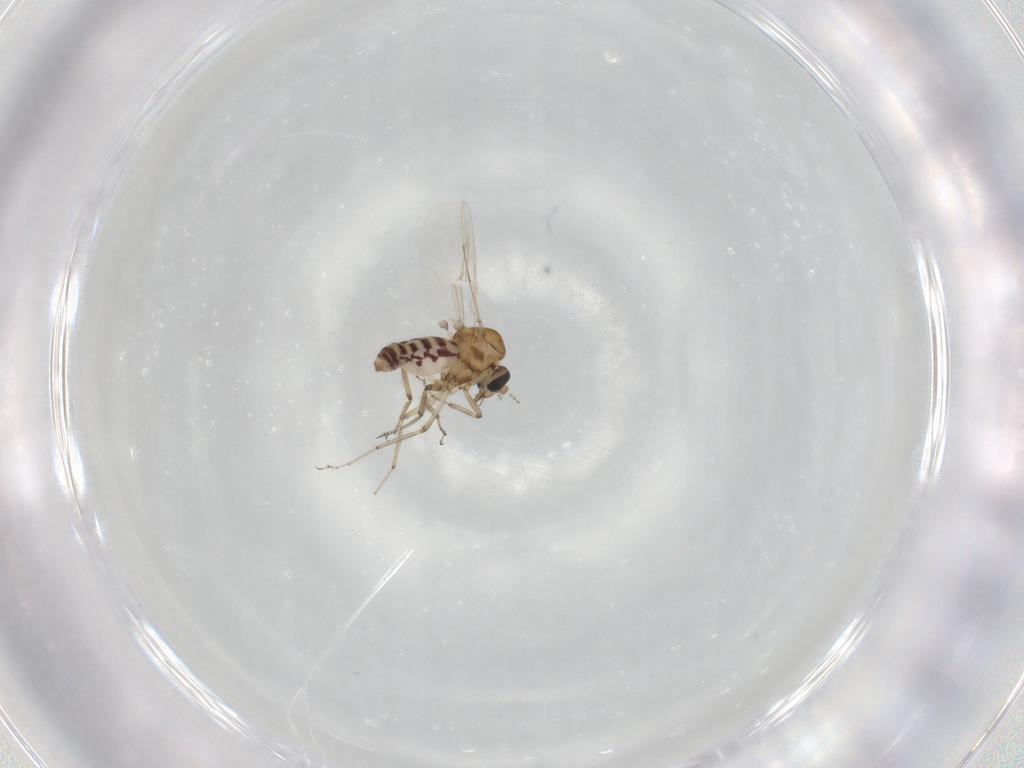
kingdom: Animalia
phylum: Arthropoda
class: Insecta
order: Diptera
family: Ceratopogonidae
